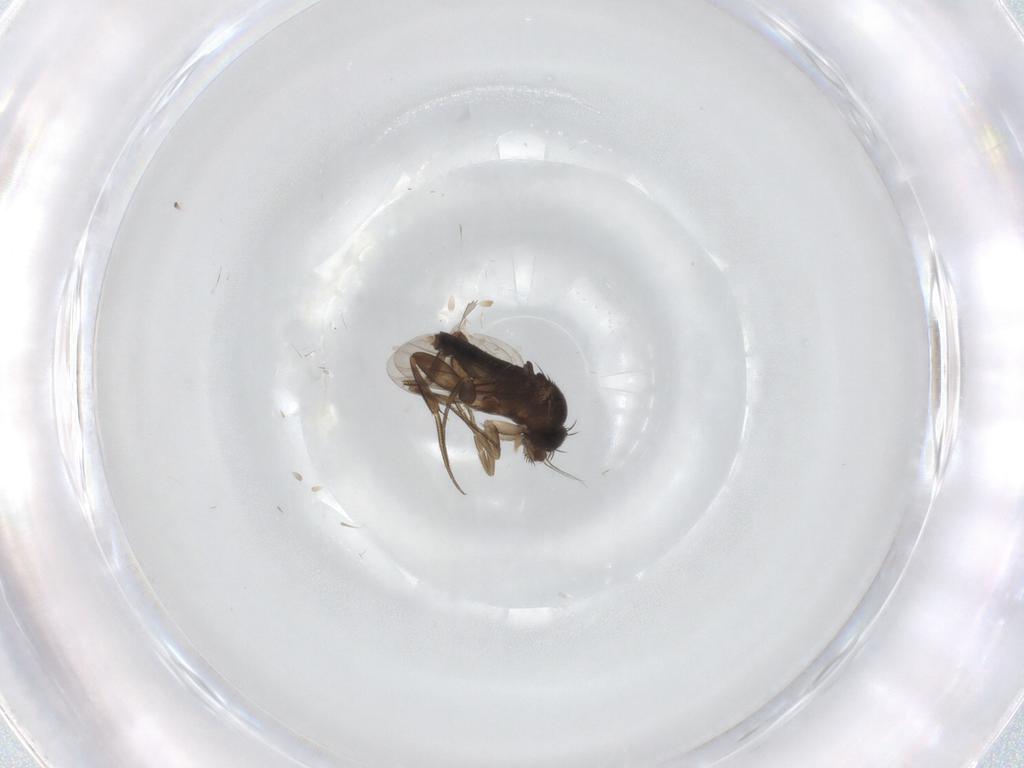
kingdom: Animalia
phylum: Arthropoda
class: Insecta
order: Diptera
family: Phoridae
